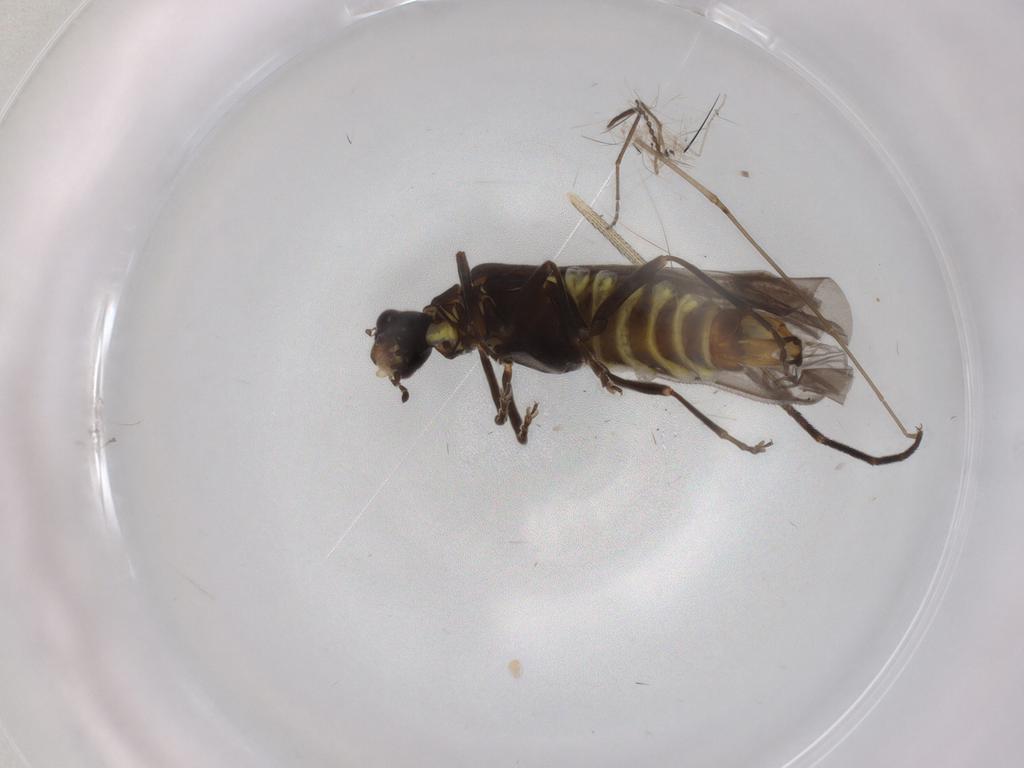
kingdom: Animalia
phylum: Arthropoda
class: Insecta
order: Coleoptera
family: Cantharidae
